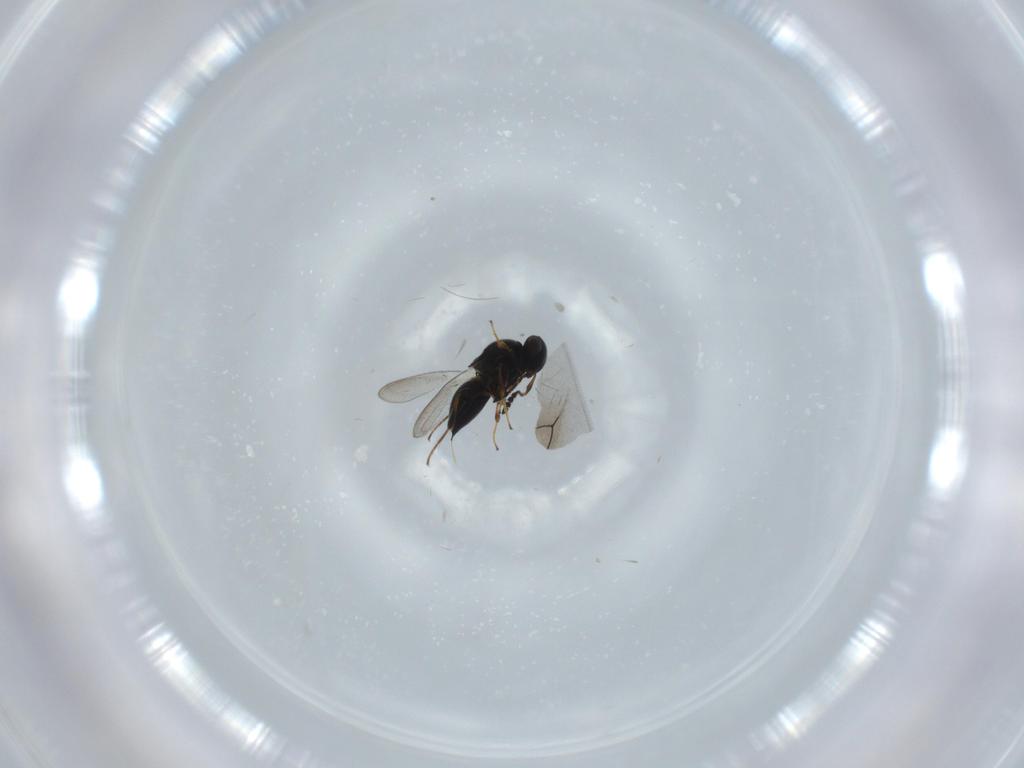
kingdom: Animalia
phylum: Arthropoda
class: Insecta
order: Hymenoptera
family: Platygastridae
